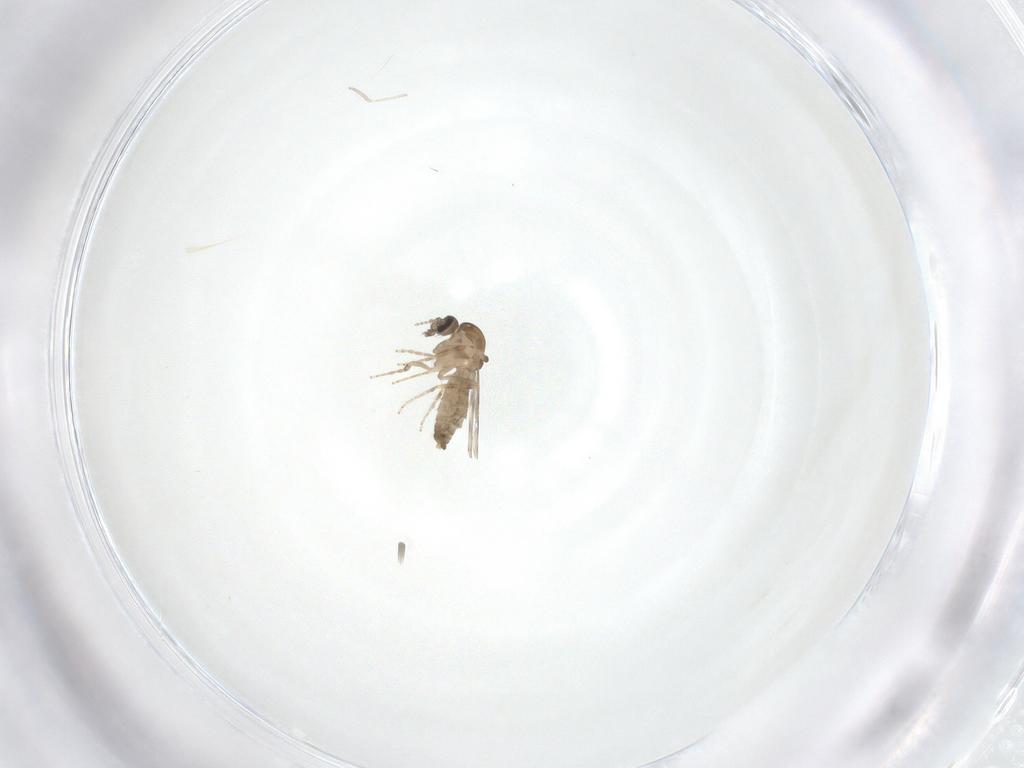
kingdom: Animalia
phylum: Arthropoda
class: Insecta
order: Diptera
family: Ceratopogonidae
